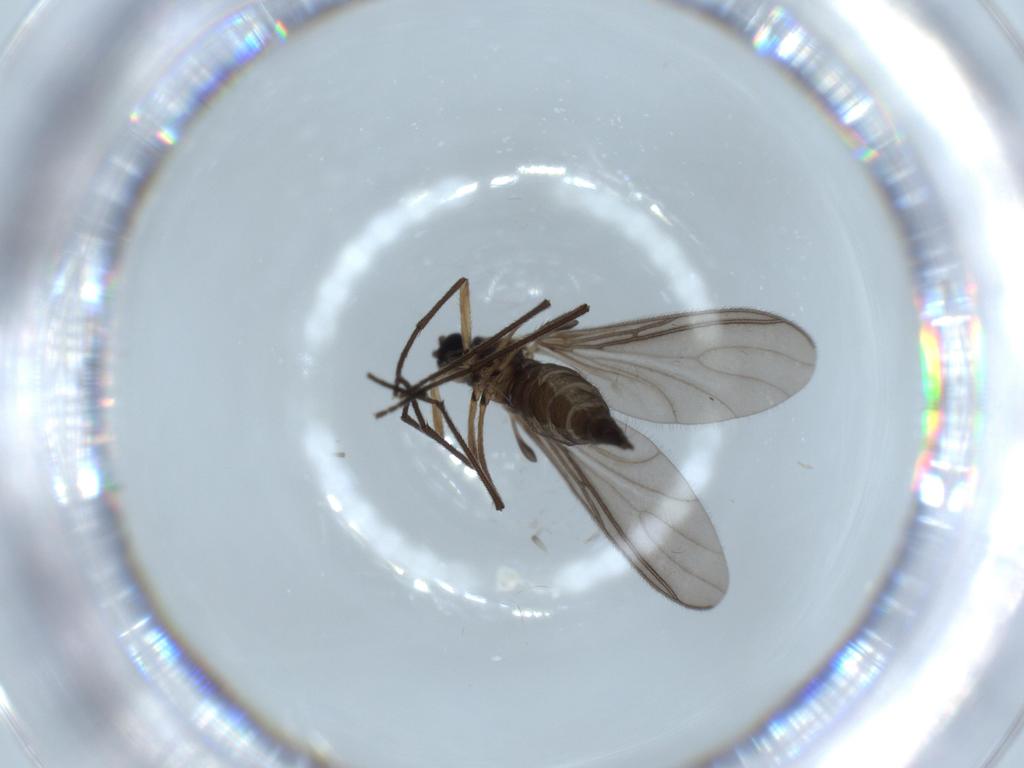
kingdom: Animalia
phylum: Arthropoda
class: Insecta
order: Diptera
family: Sciaridae
